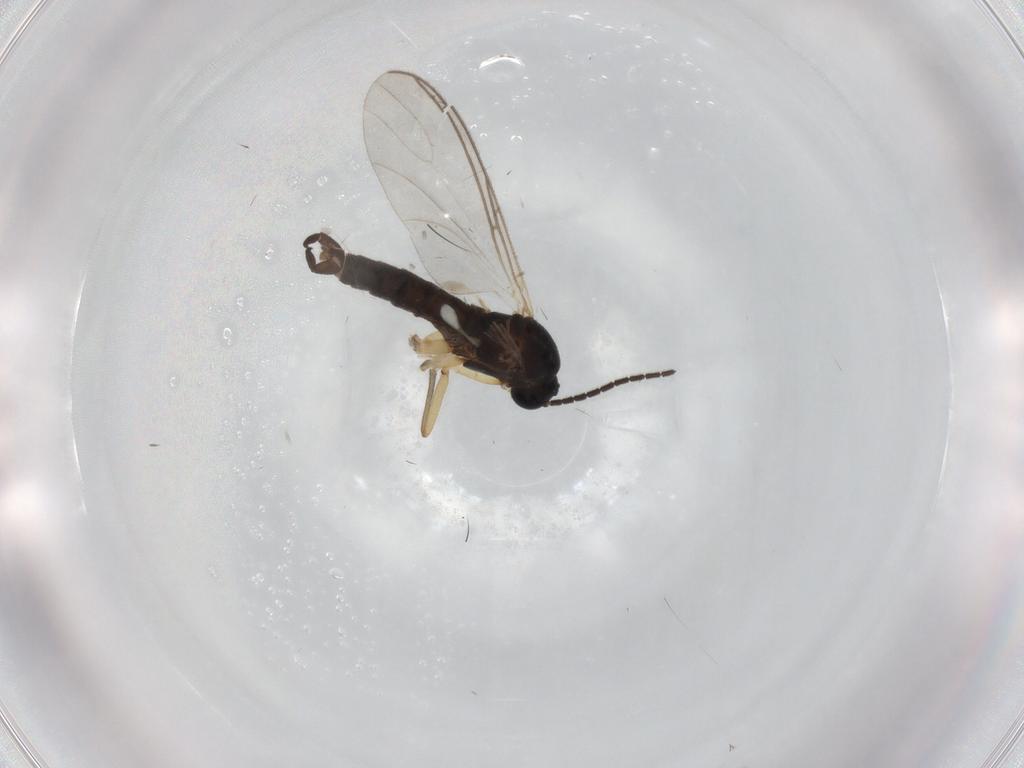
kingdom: Animalia
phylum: Arthropoda
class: Insecta
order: Diptera
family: Sciaridae
